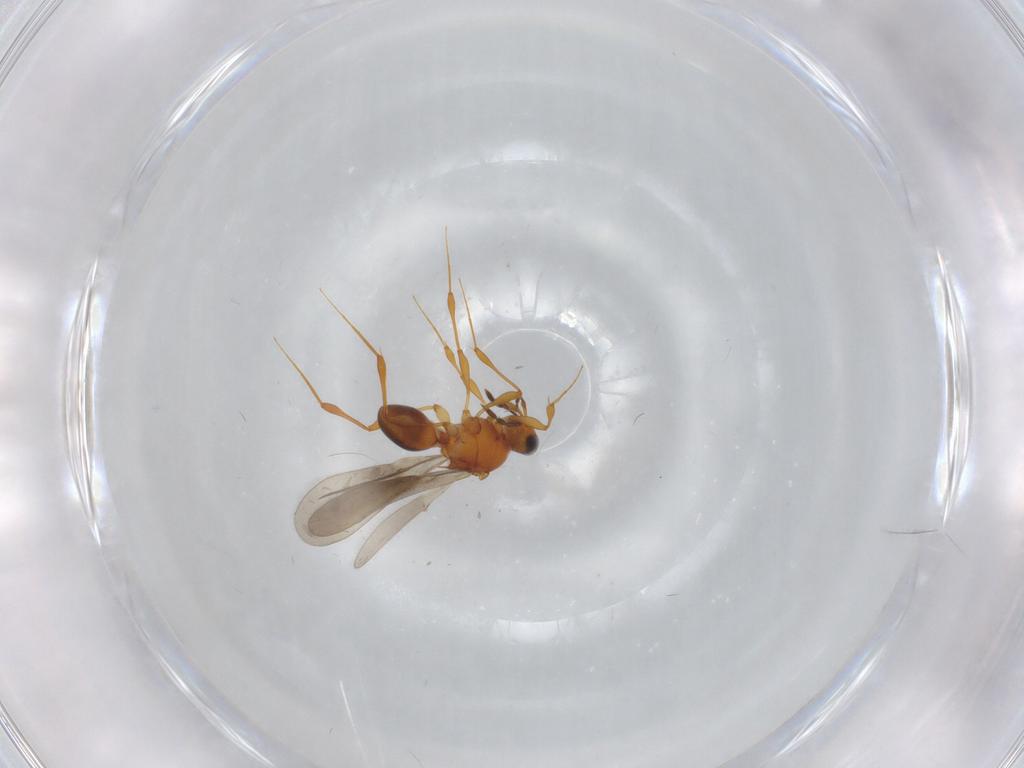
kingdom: Animalia
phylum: Arthropoda
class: Insecta
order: Hymenoptera
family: Platygastridae
